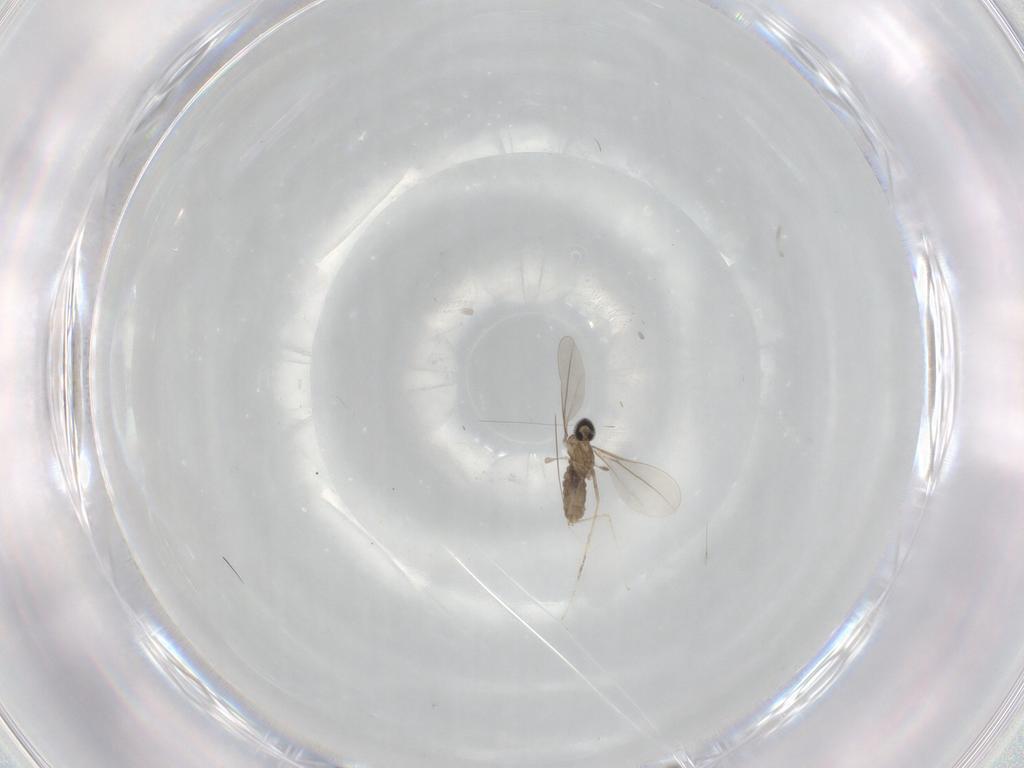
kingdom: Animalia
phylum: Arthropoda
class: Insecta
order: Diptera
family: Cecidomyiidae
